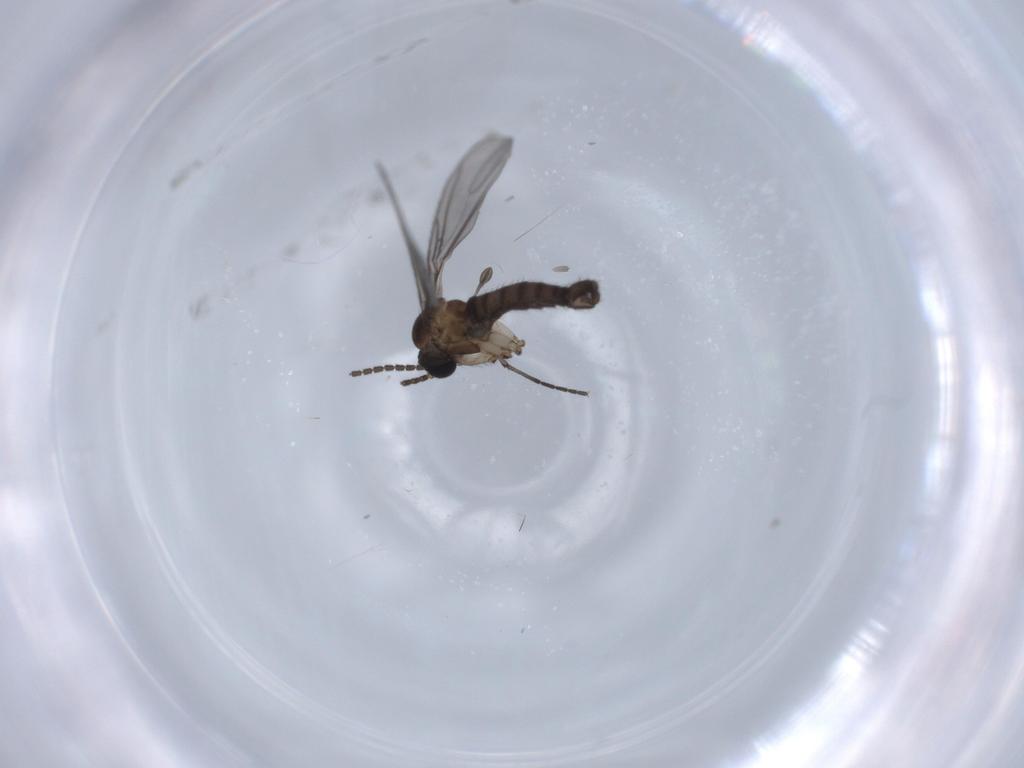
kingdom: Animalia
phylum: Arthropoda
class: Insecta
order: Diptera
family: Sciaridae
